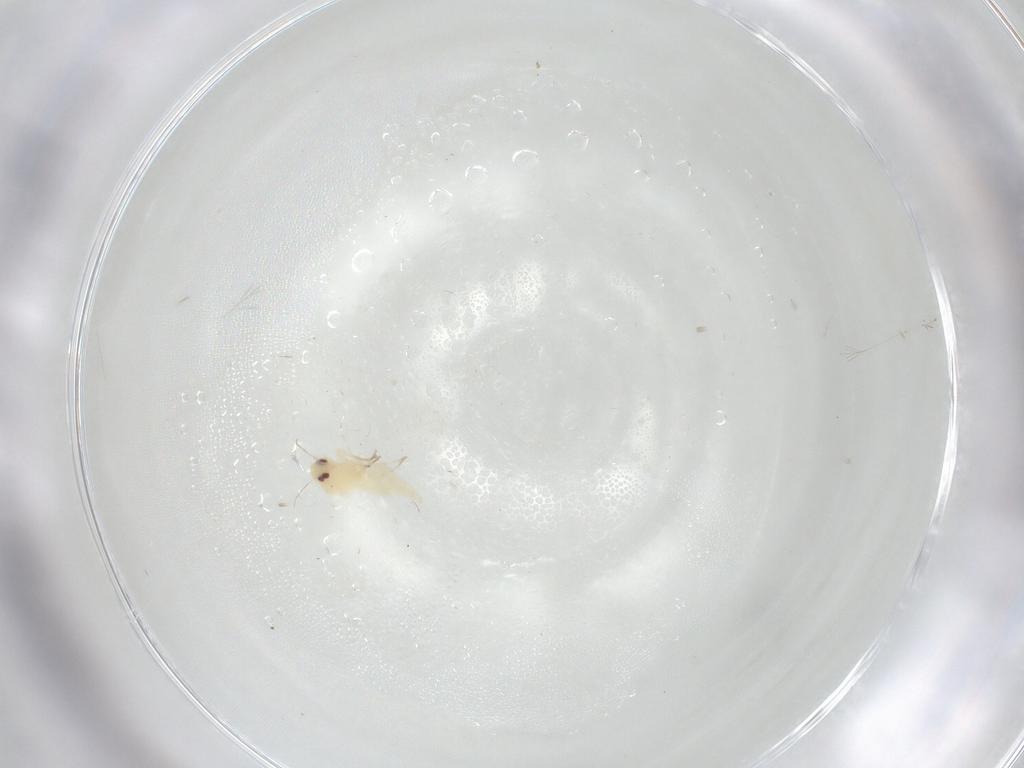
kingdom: Animalia
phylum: Arthropoda
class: Insecta
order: Hemiptera
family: Aleyrodidae
